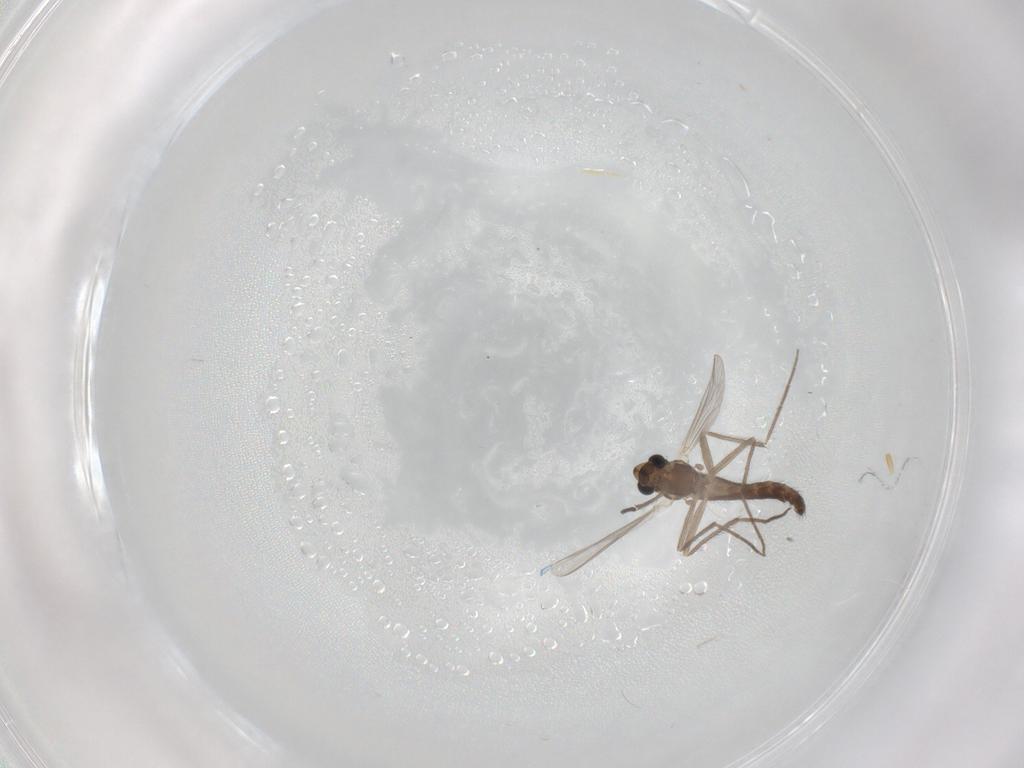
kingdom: Animalia
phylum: Arthropoda
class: Insecta
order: Diptera
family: Chironomidae
